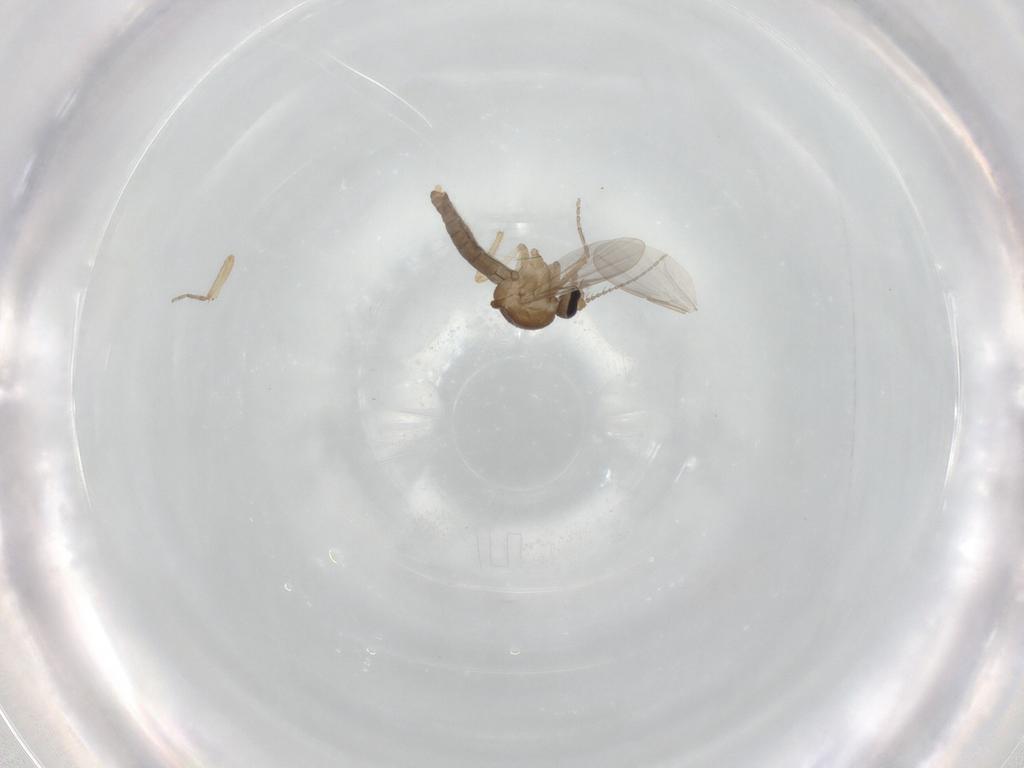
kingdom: Animalia
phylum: Arthropoda
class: Insecta
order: Diptera
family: Ceratopogonidae
